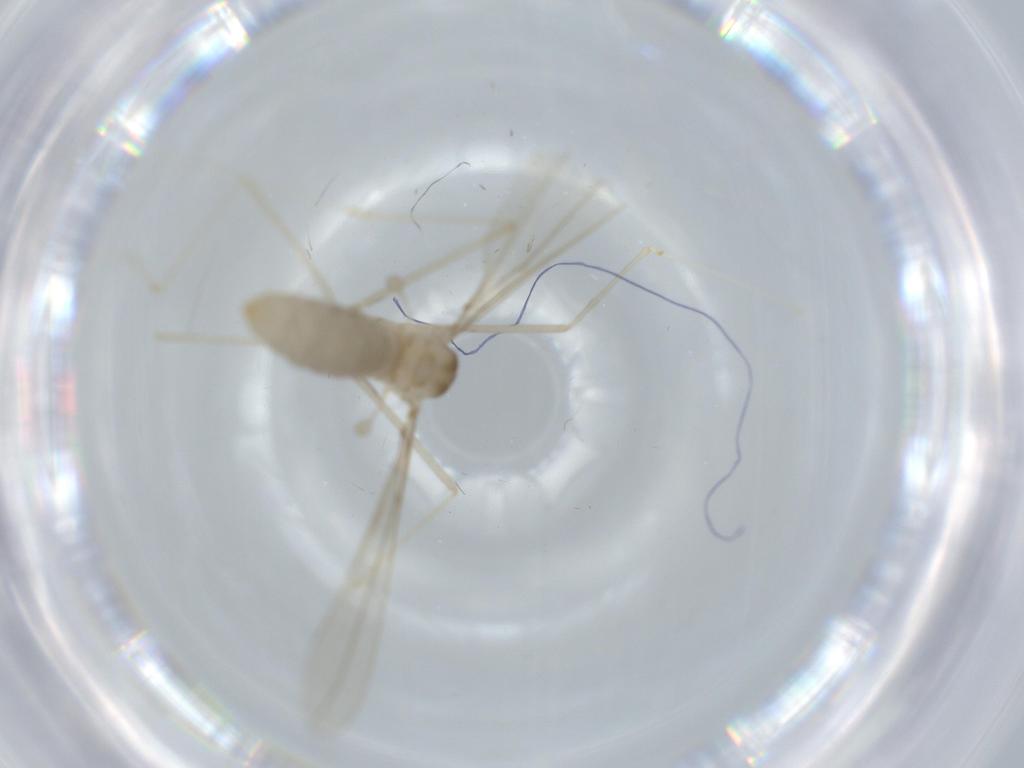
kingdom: Animalia
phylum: Arthropoda
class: Insecta
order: Diptera
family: Cecidomyiidae
